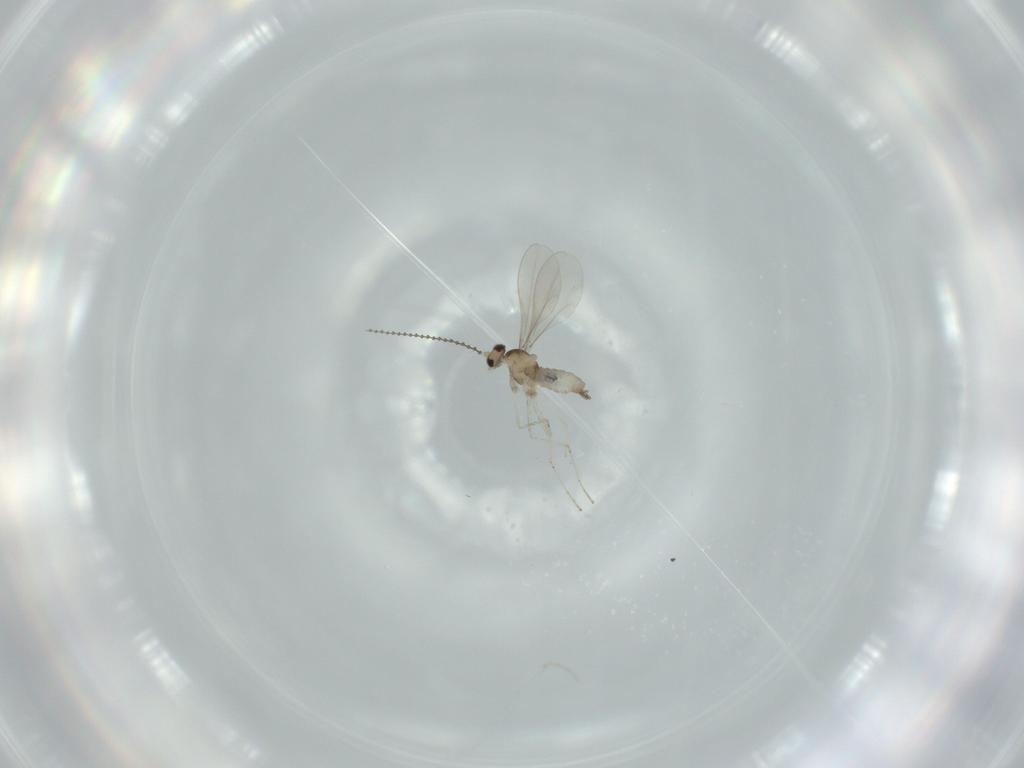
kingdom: Animalia
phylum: Arthropoda
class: Insecta
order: Diptera
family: Cecidomyiidae
